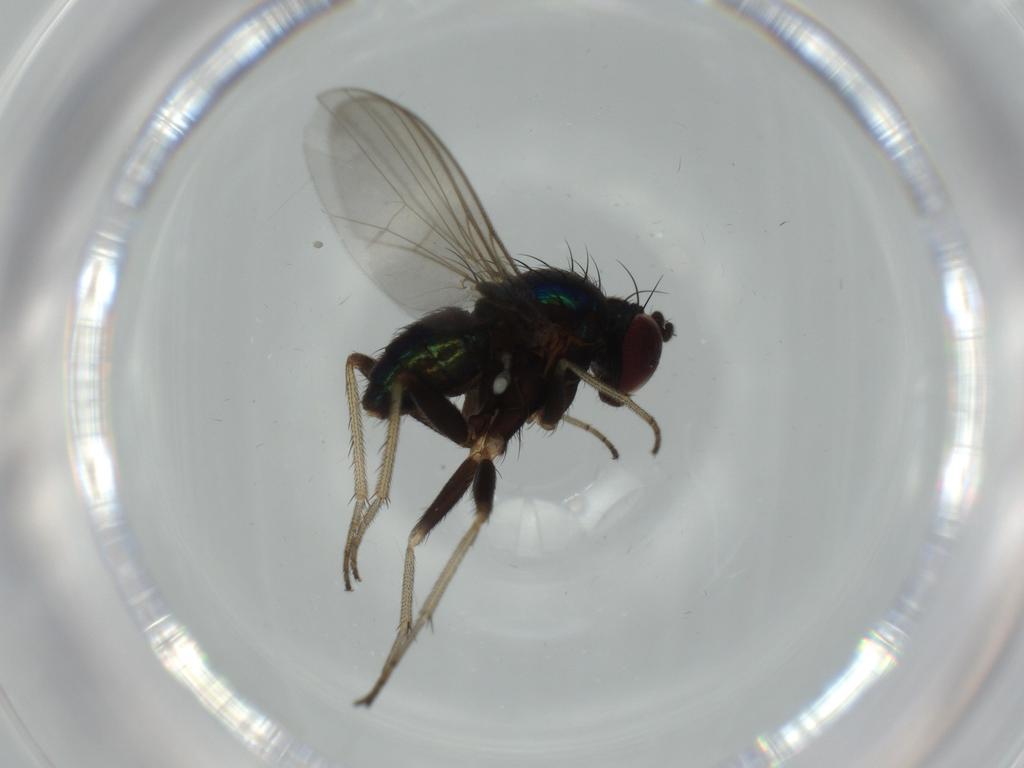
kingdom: Animalia
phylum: Arthropoda
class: Insecta
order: Diptera
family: Dolichopodidae
